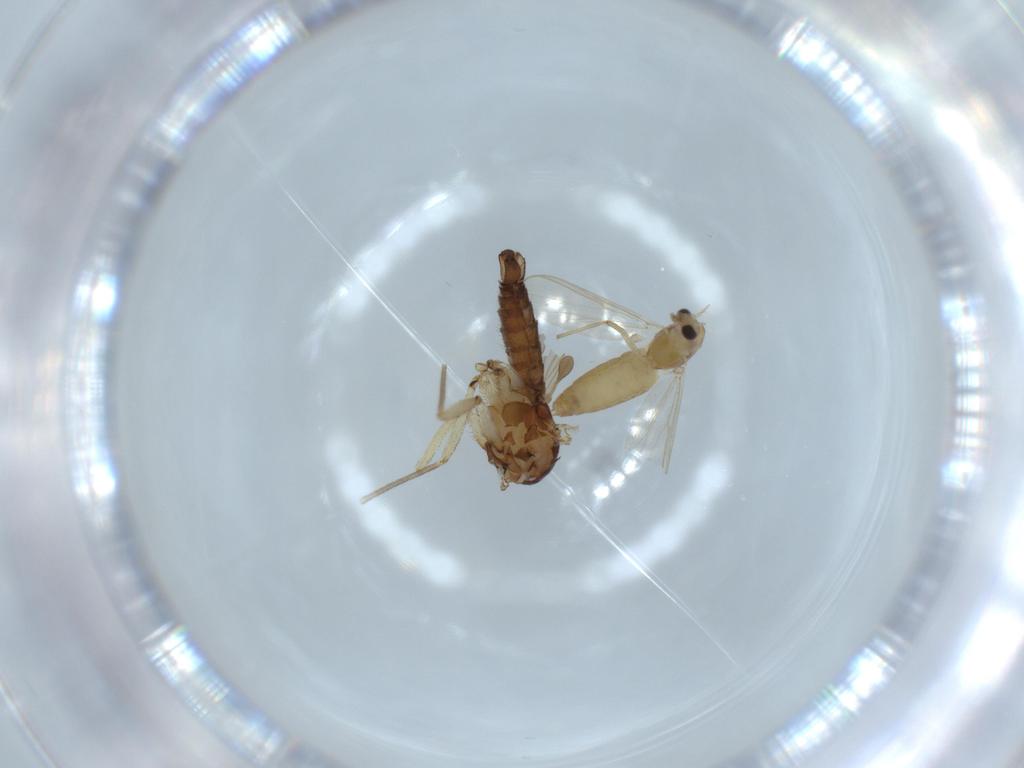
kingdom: Animalia
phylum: Arthropoda
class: Insecta
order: Diptera
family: Chironomidae
